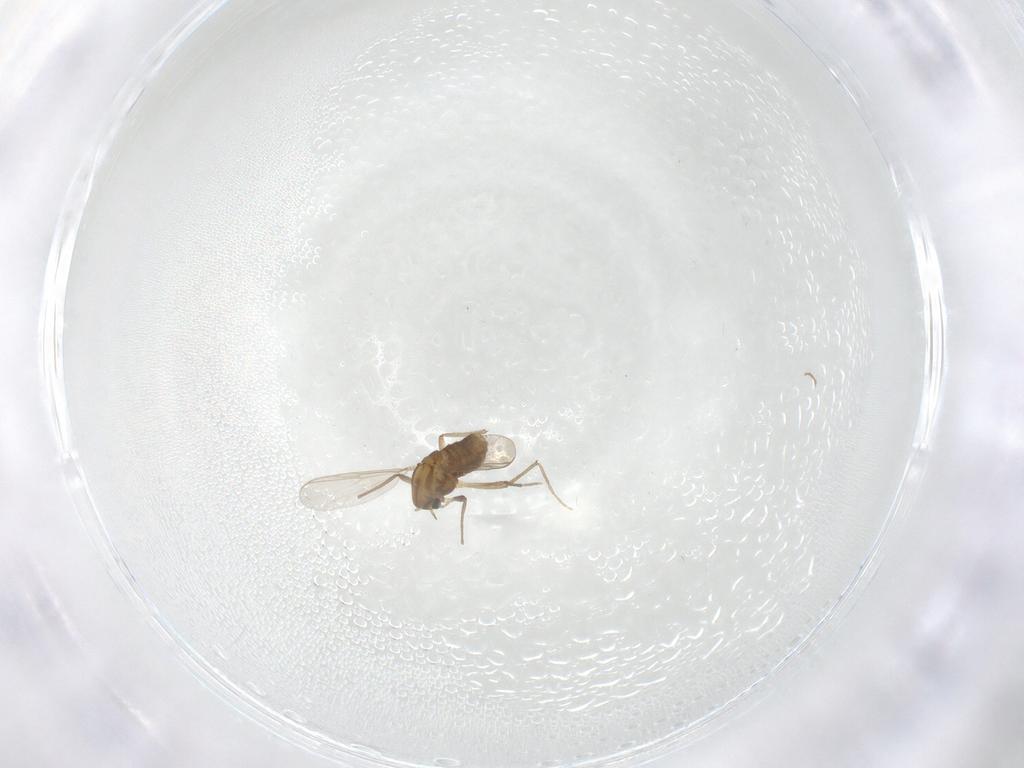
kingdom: Animalia
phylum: Arthropoda
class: Insecta
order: Diptera
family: Chironomidae
